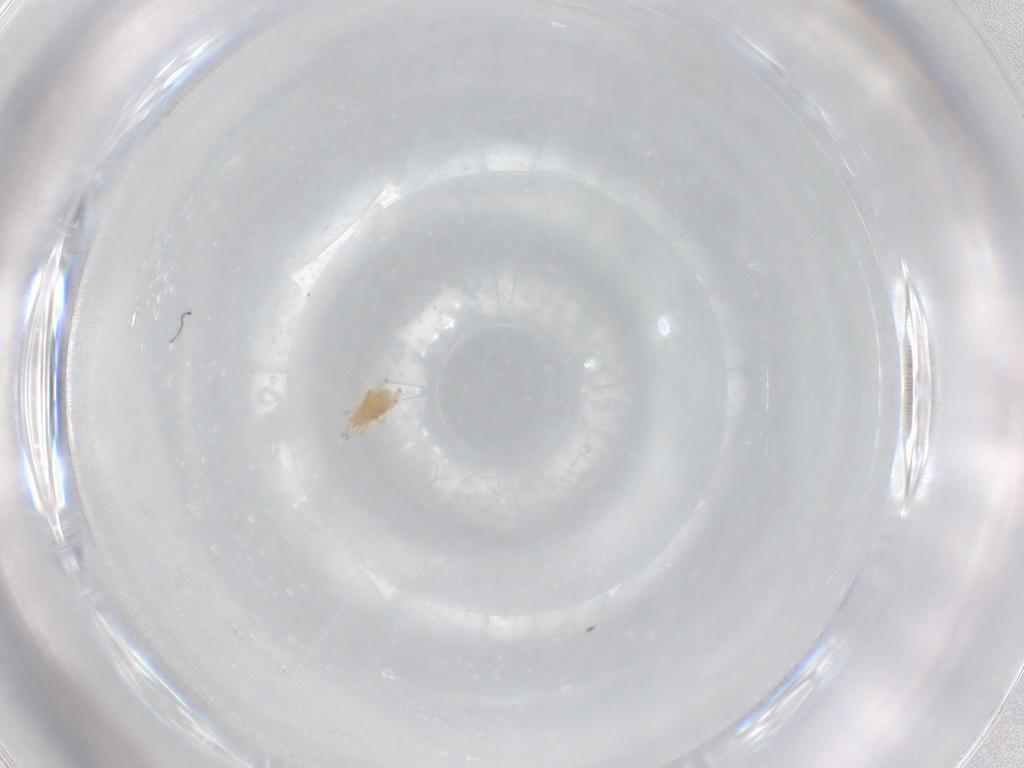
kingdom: Animalia
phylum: Arthropoda
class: Arachnida
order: Trombidiformes
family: Cunaxidae
